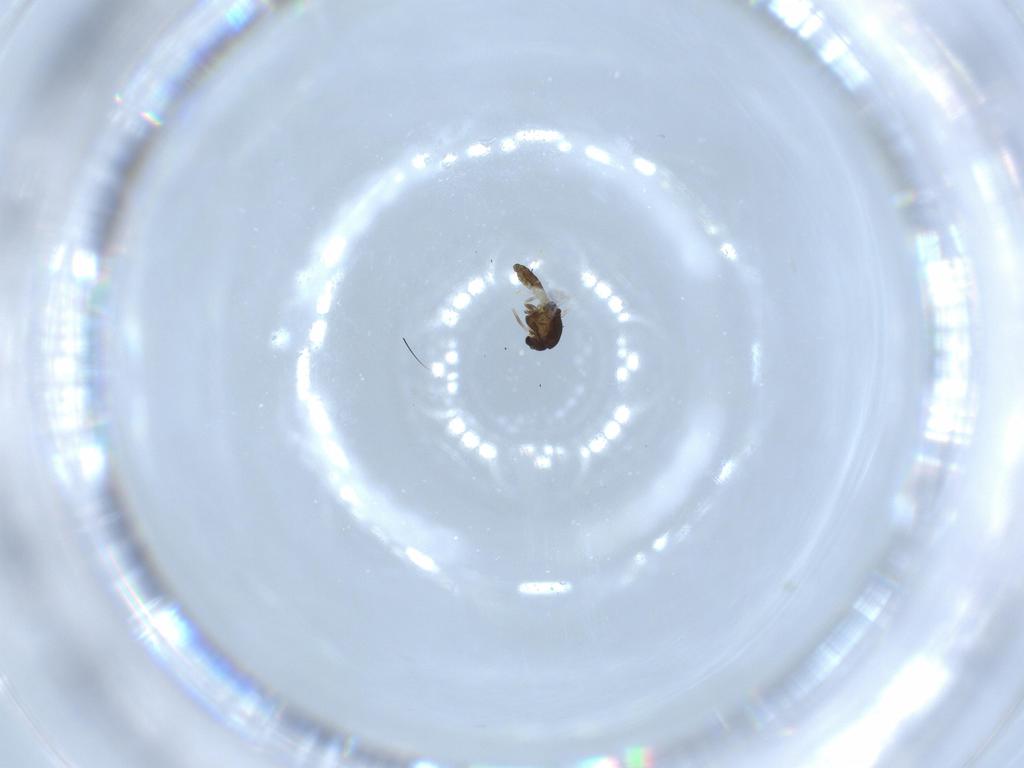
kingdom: Animalia
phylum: Arthropoda
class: Insecta
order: Diptera
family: Chironomidae
